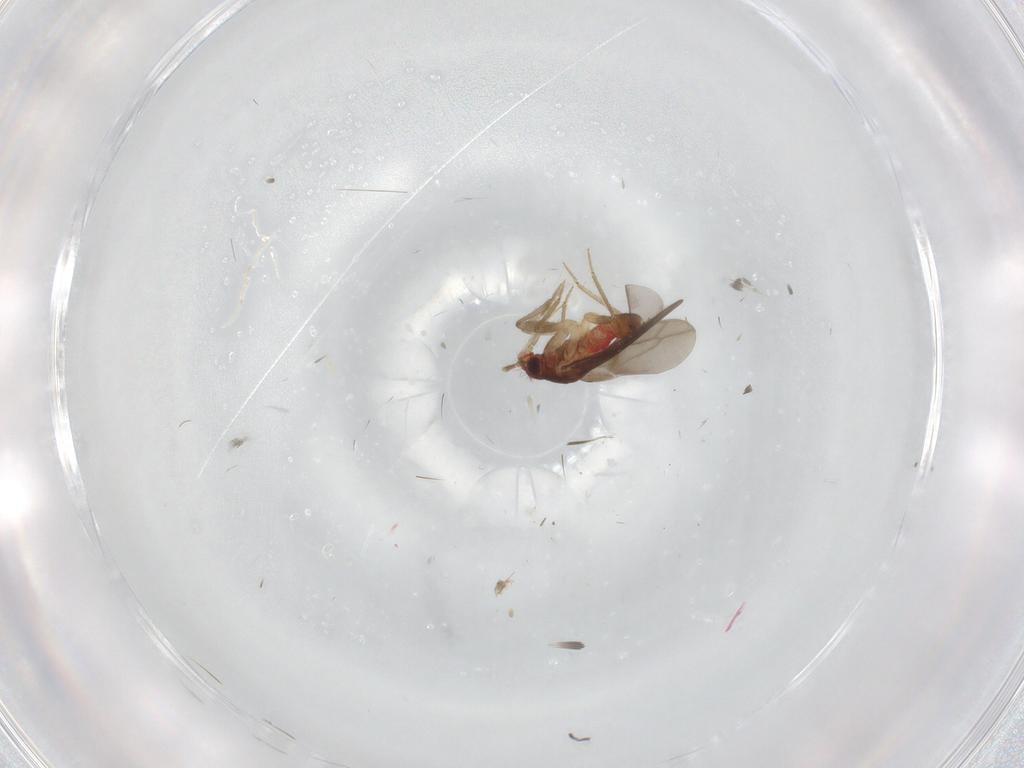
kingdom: Animalia
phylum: Arthropoda
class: Insecta
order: Hemiptera
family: Ceratocombidae
